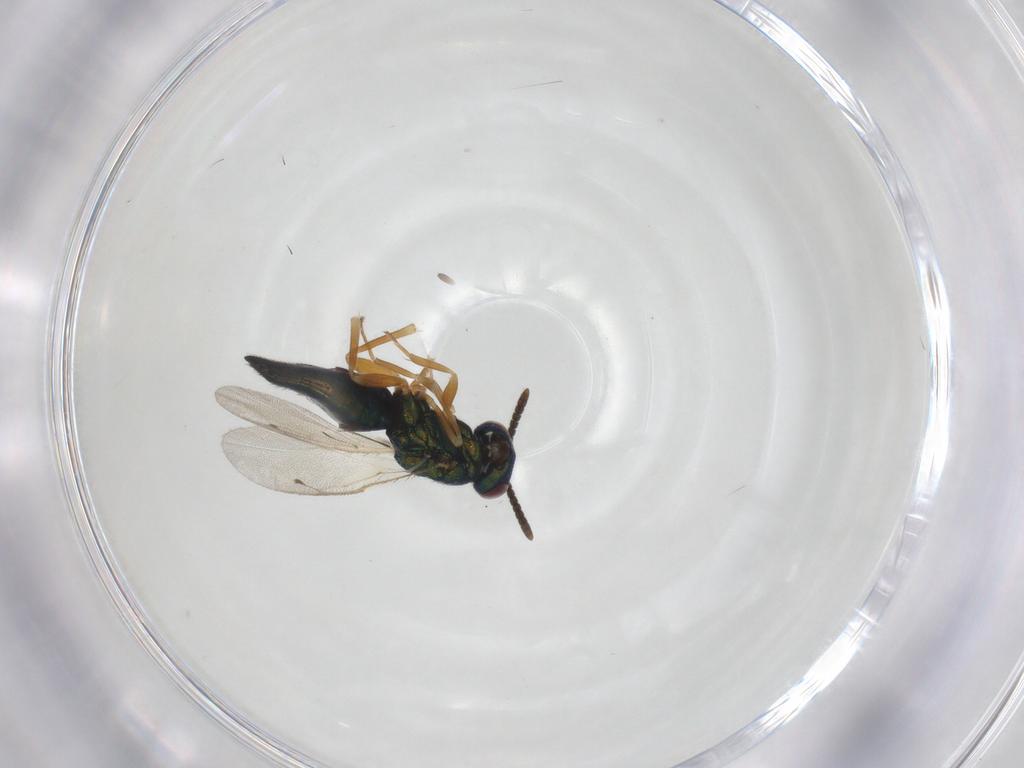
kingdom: Animalia
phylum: Arthropoda
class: Insecta
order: Hymenoptera
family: Pteromalidae
